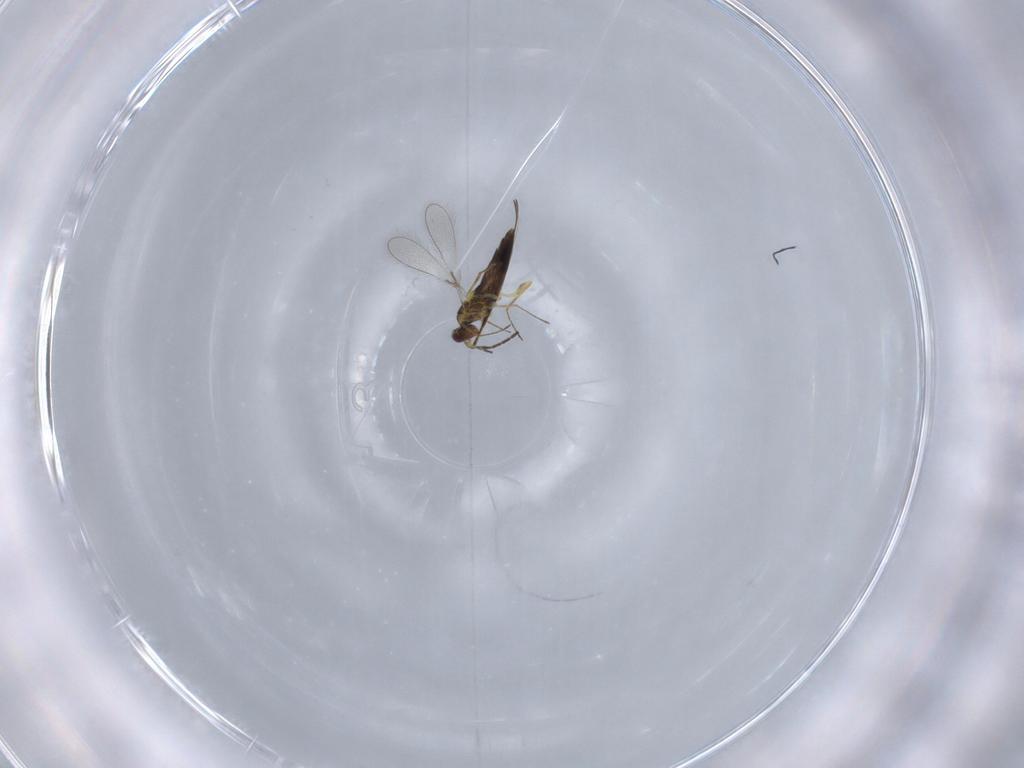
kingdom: Animalia
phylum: Arthropoda
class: Insecta
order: Hymenoptera
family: Mymaridae
